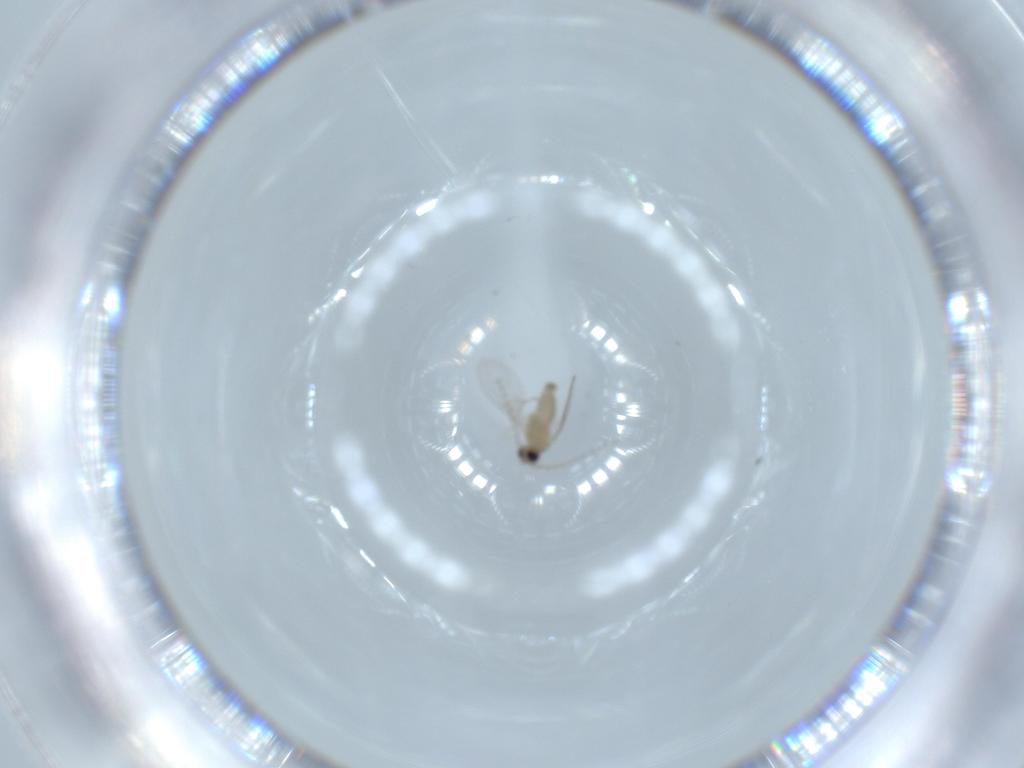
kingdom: Animalia
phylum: Arthropoda
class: Insecta
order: Diptera
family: Cecidomyiidae
